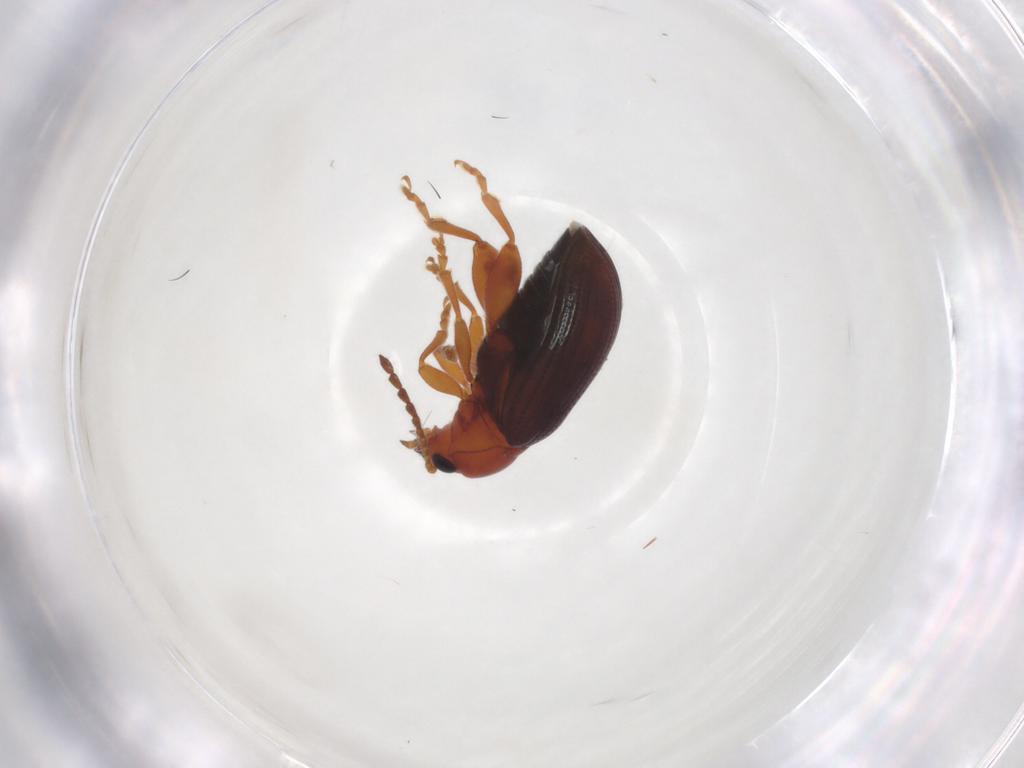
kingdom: Animalia
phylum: Arthropoda
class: Insecta
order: Coleoptera
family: Chrysomelidae
